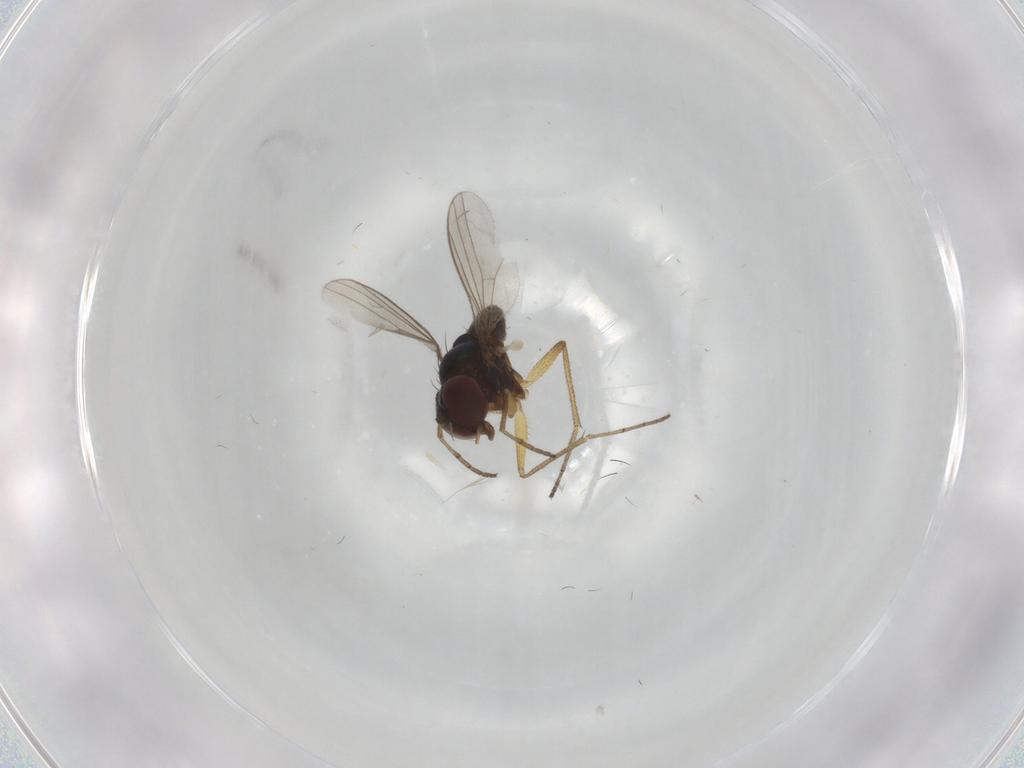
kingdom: Animalia
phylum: Arthropoda
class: Insecta
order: Diptera
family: Dolichopodidae
